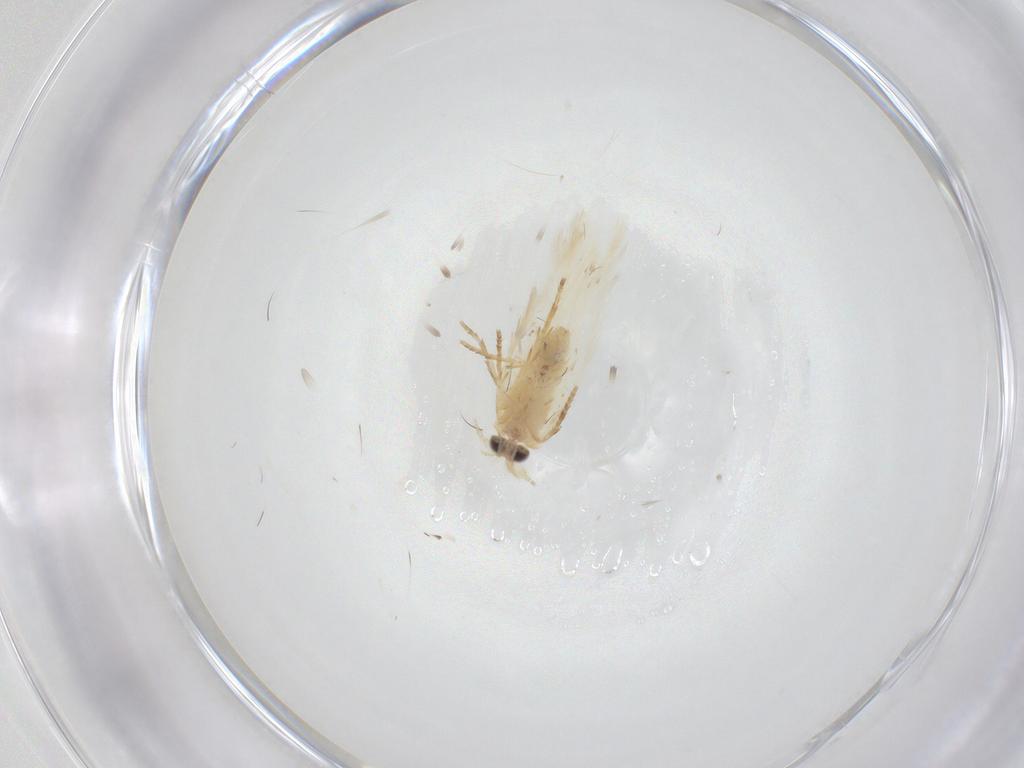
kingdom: Animalia
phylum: Arthropoda
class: Insecta
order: Lepidoptera
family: Nepticulidae
